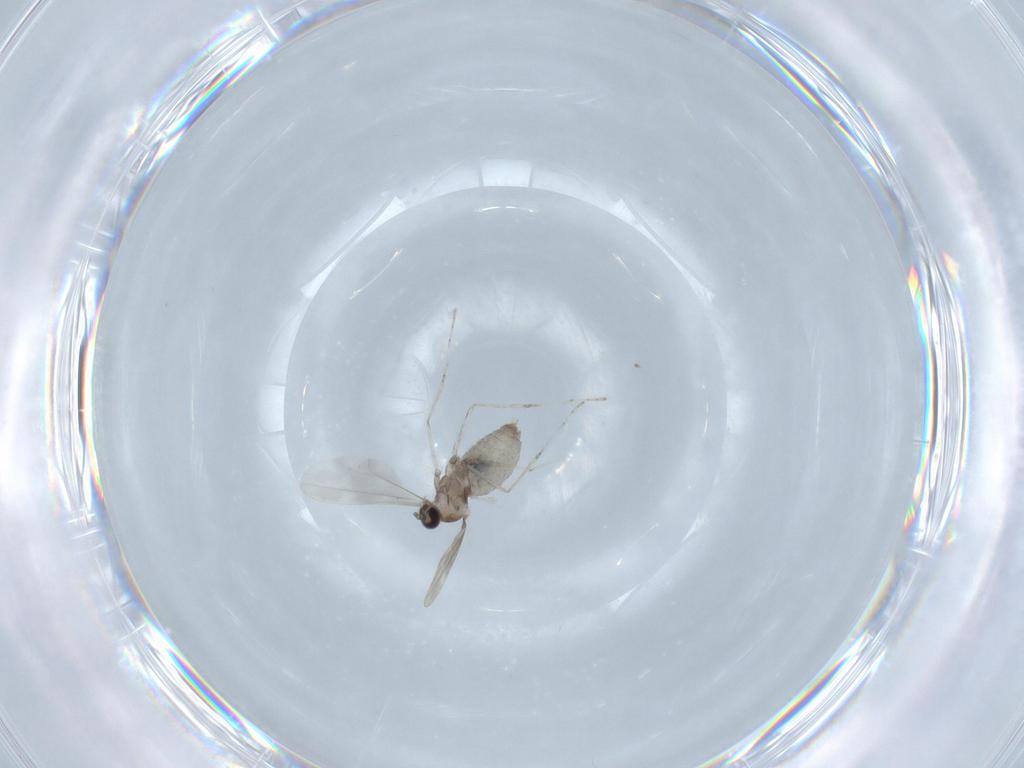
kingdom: Animalia
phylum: Arthropoda
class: Insecta
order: Diptera
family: Cecidomyiidae
